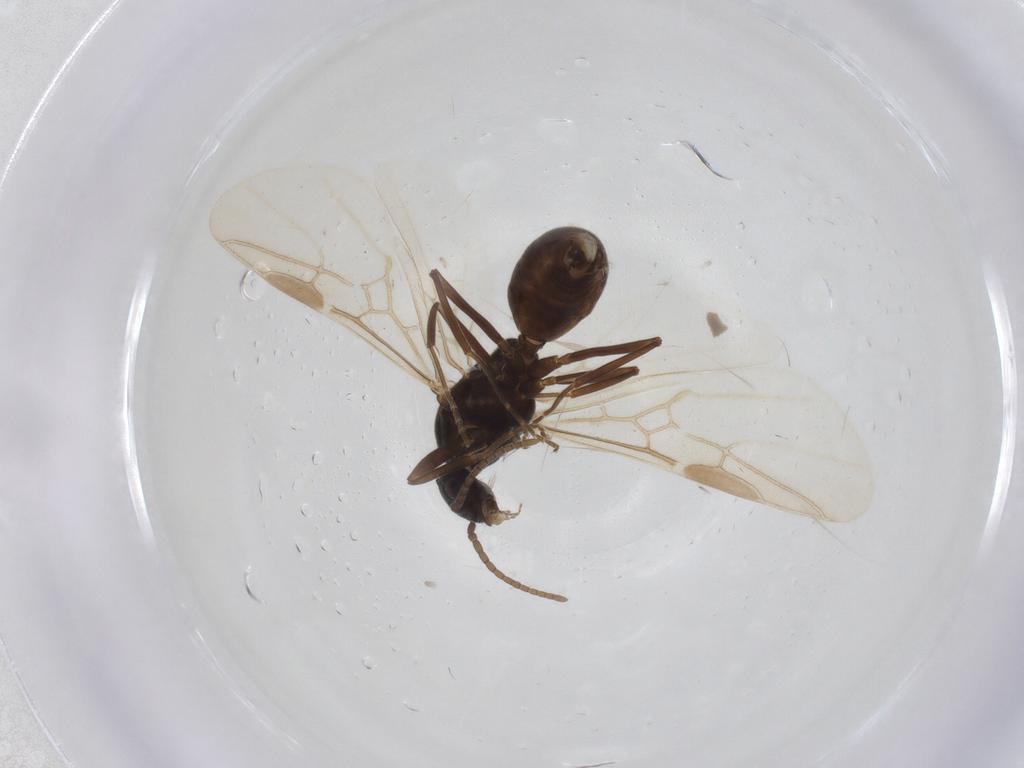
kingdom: Animalia
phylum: Arthropoda
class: Insecta
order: Hymenoptera
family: Formicidae
